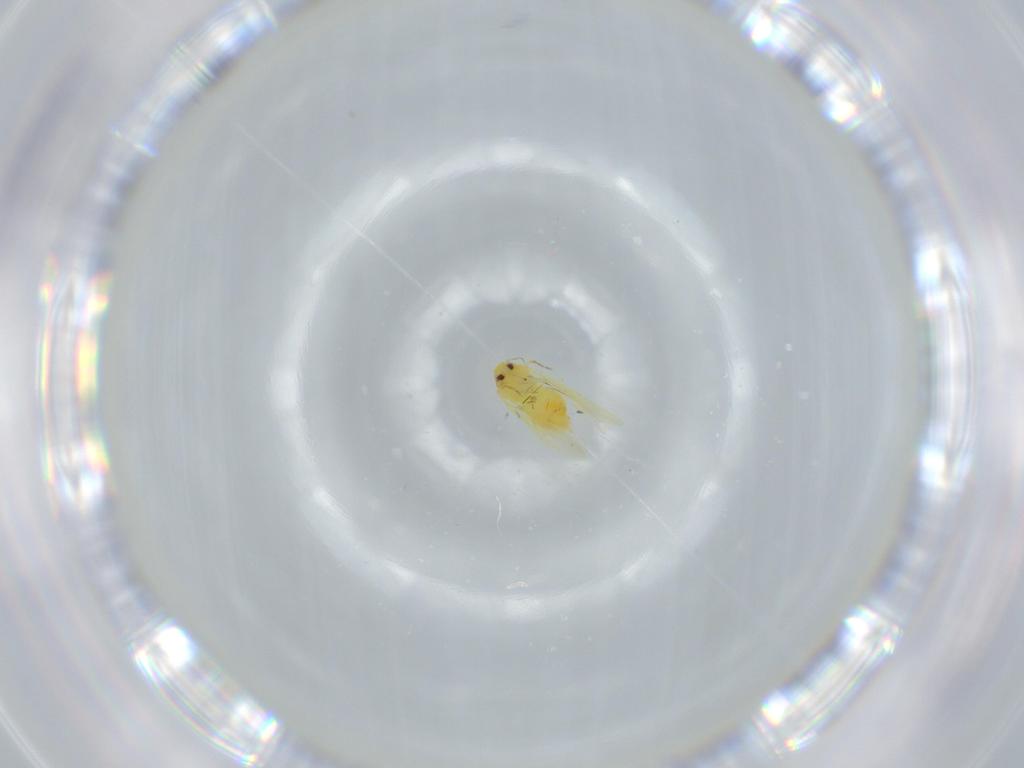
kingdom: Animalia
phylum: Arthropoda
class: Insecta
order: Hemiptera
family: Aleyrodidae
